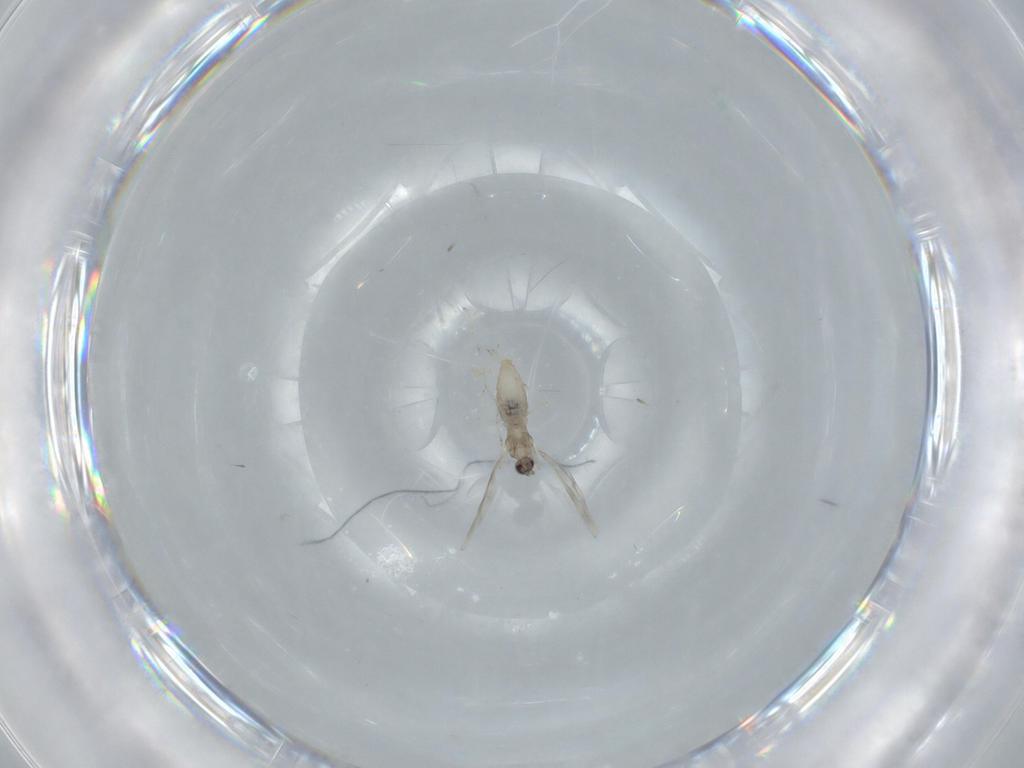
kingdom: Animalia
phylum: Arthropoda
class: Insecta
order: Diptera
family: Cecidomyiidae
